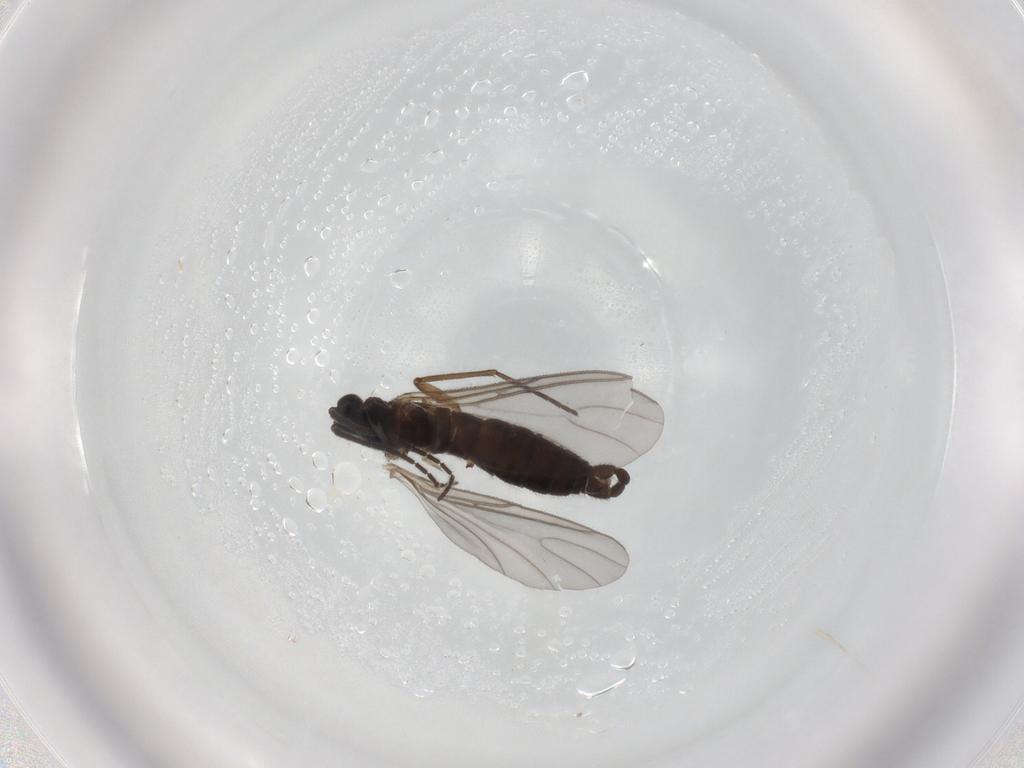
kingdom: Animalia
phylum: Arthropoda
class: Insecta
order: Diptera
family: Sciaridae
